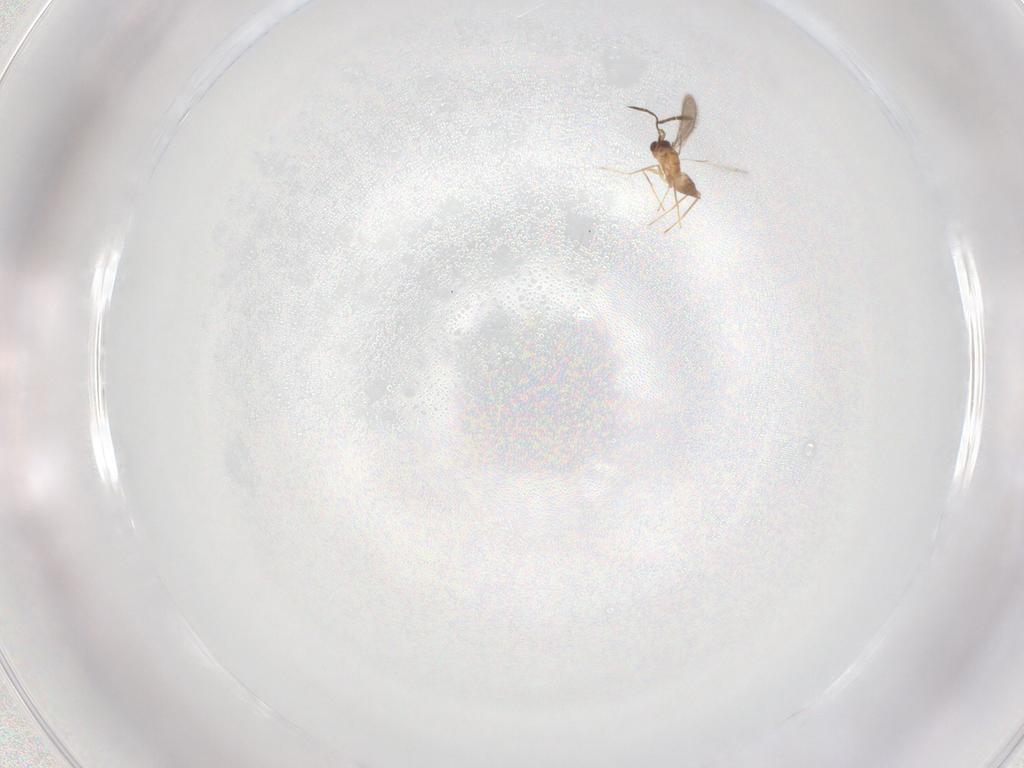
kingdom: Animalia
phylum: Arthropoda
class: Insecta
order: Hymenoptera
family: Mymaridae
